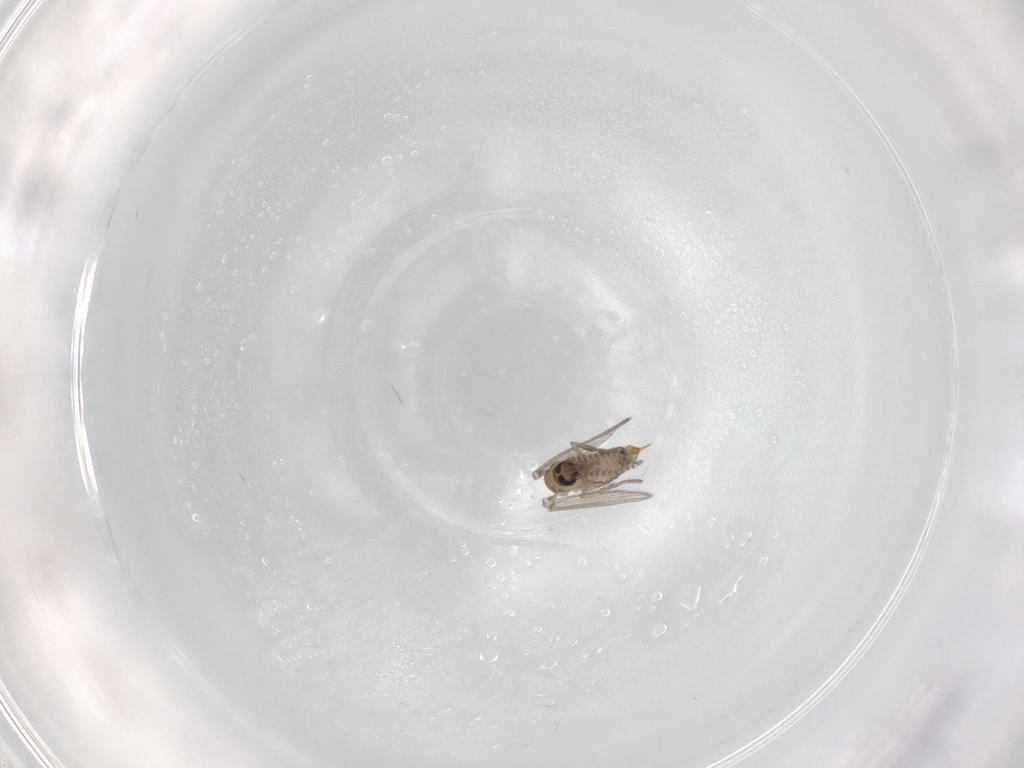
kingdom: Animalia
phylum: Arthropoda
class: Insecta
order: Diptera
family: Psychodidae
